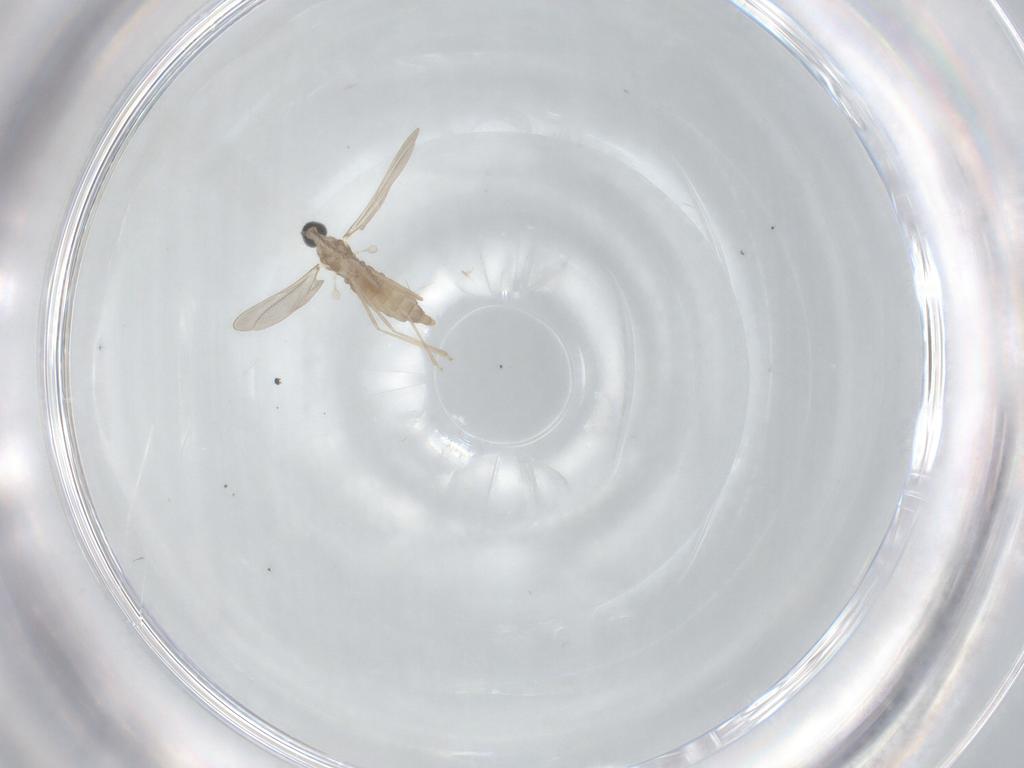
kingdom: Animalia
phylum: Arthropoda
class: Insecta
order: Diptera
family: Cecidomyiidae
